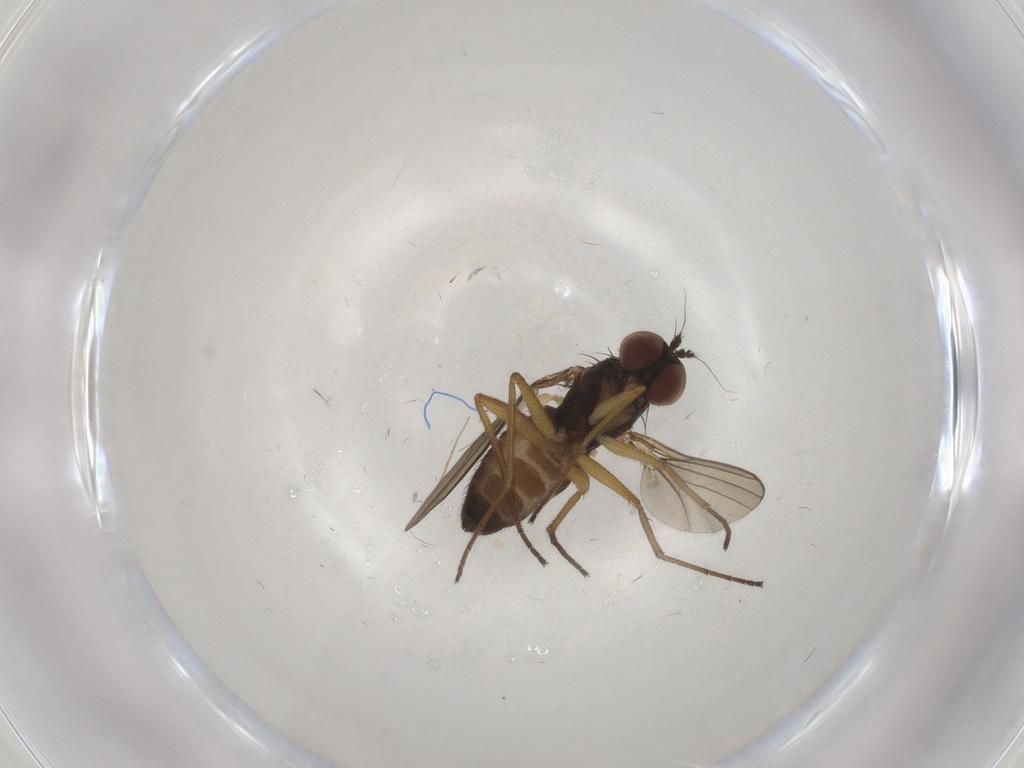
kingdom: Animalia
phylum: Arthropoda
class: Insecta
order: Diptera
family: Dolichopodidae
